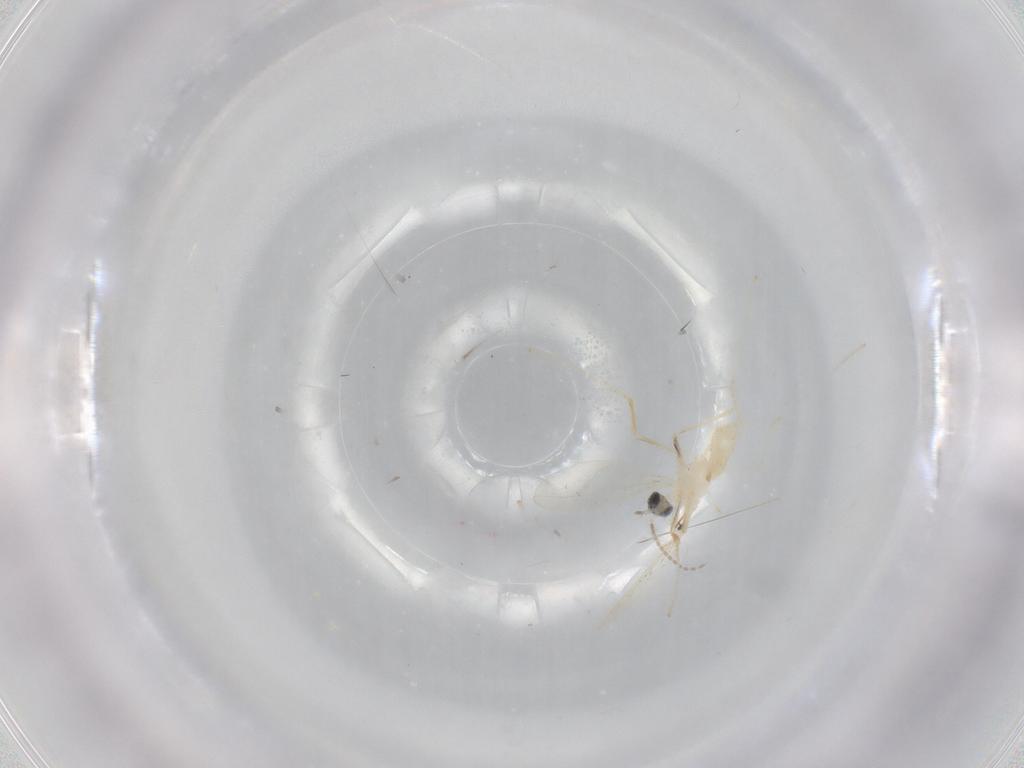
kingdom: Animalia
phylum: Arthropoda
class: Insecta
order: Diptera
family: Cecidomyiidae
